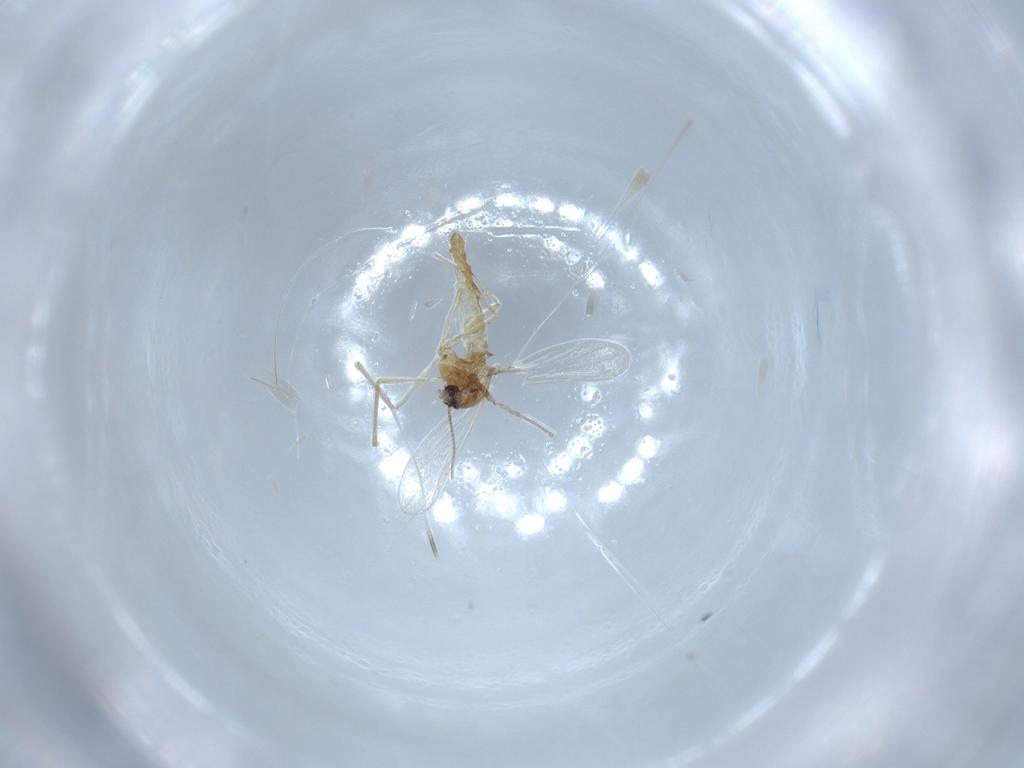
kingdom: Animalia
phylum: Arthropoda
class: Insecta
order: Diptera
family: Chironomidae
